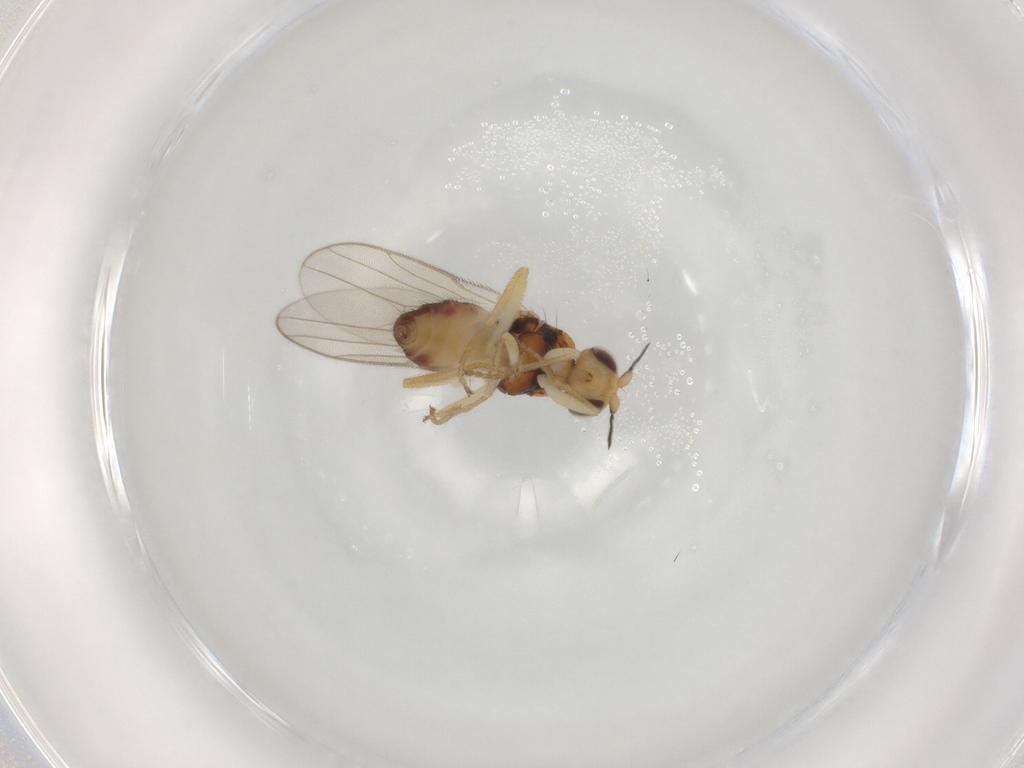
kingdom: Animalia
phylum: Arthropoda
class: Insecta
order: Diptera
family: Chloropidae
